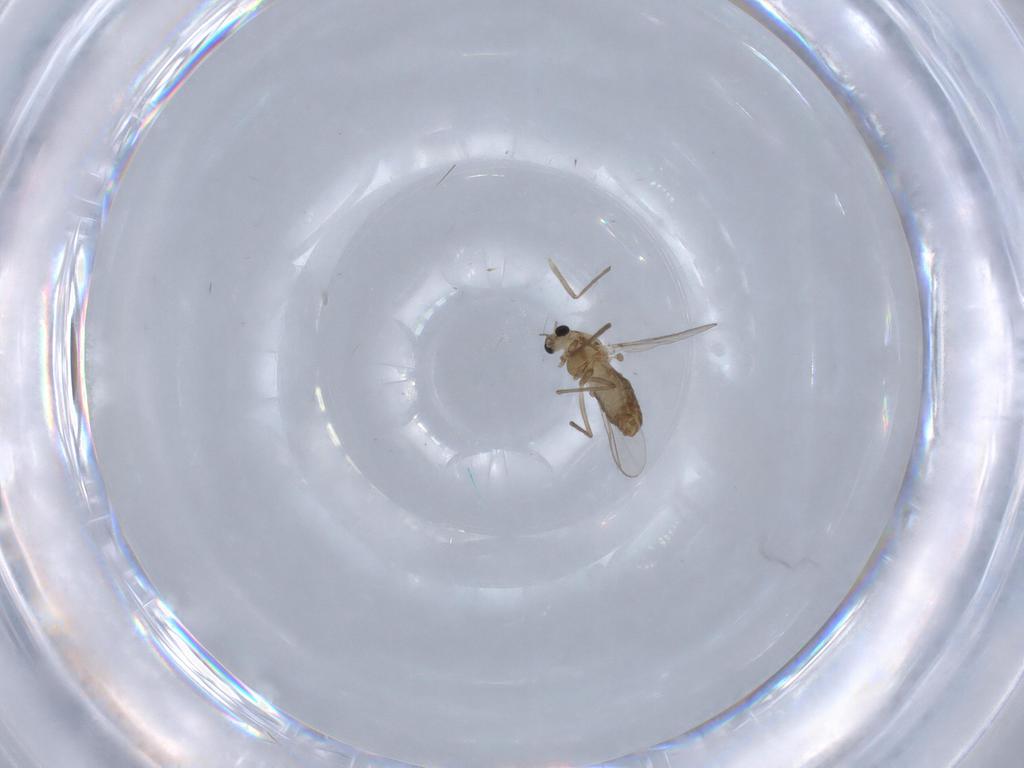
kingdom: Animalia
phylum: Arthropoda
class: Insecta
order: Diptera
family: Chironomidae
